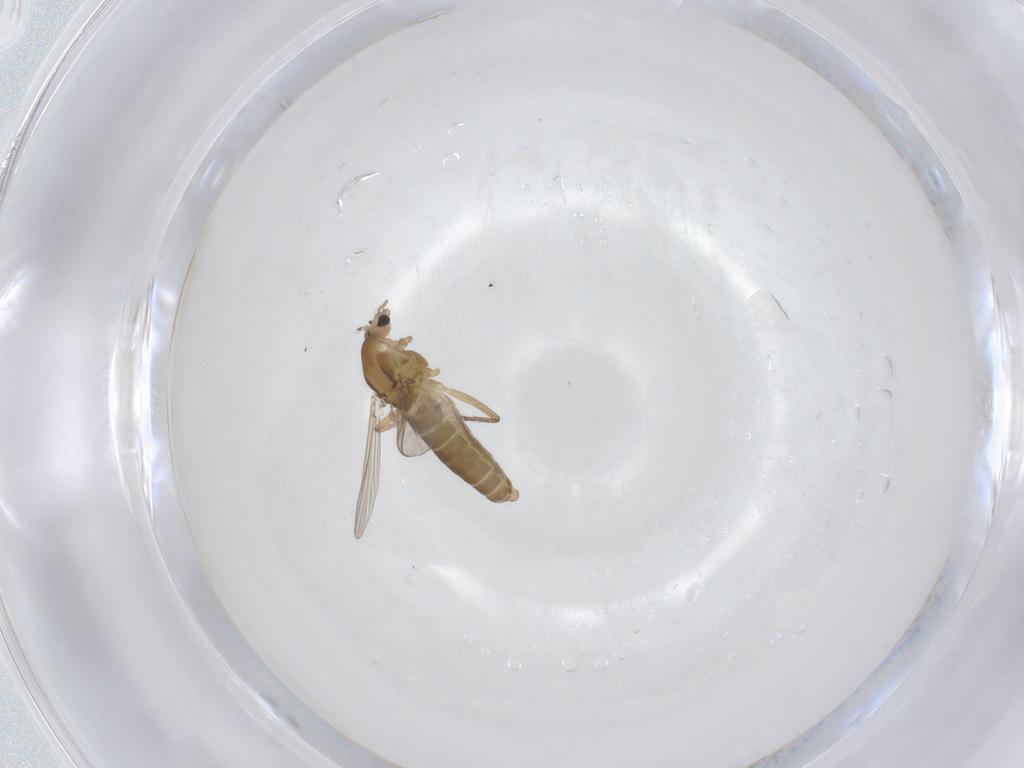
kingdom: Animalia
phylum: Arthropoda
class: Insecta
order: Diptera
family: Chironomidae
